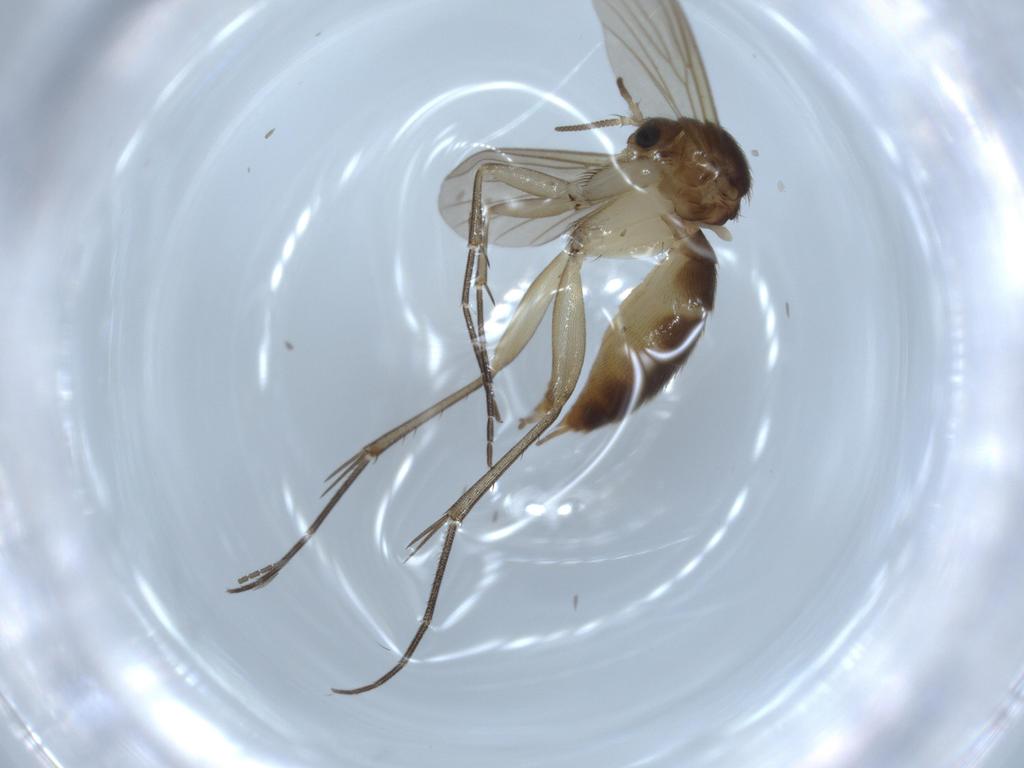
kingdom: Animalia
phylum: Arthropoda
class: Insecta
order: Diptera
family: Mycetophilidae
